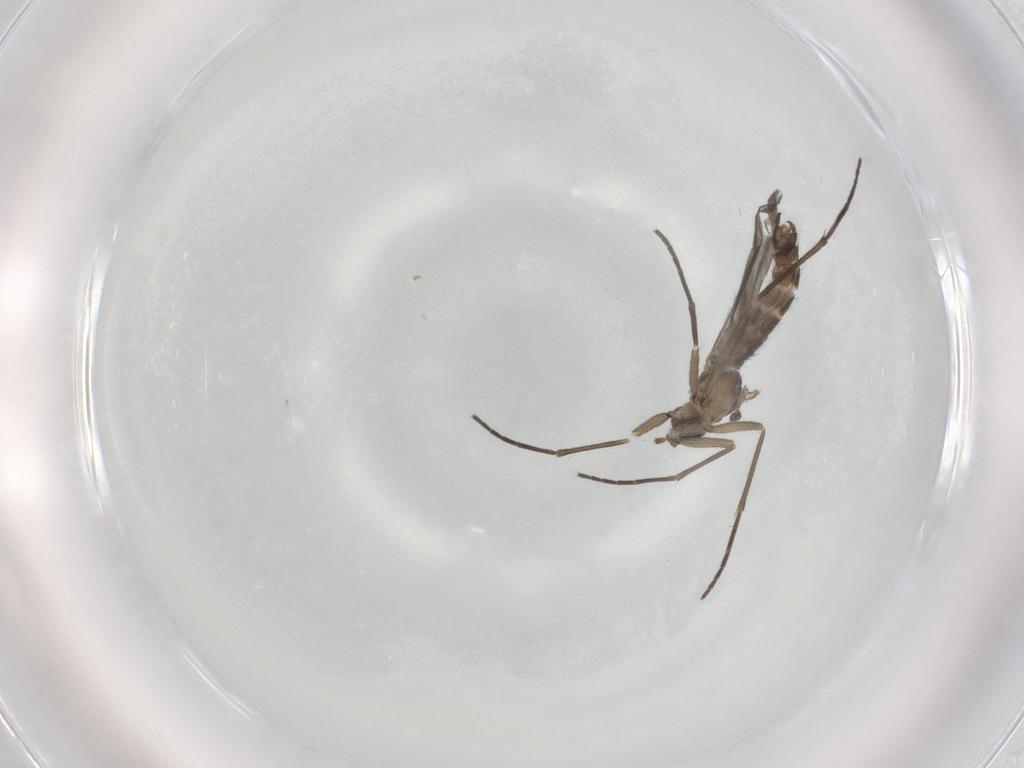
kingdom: Animalia
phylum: Arthropoda
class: Insecta
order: Diptera
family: Sciaridae
